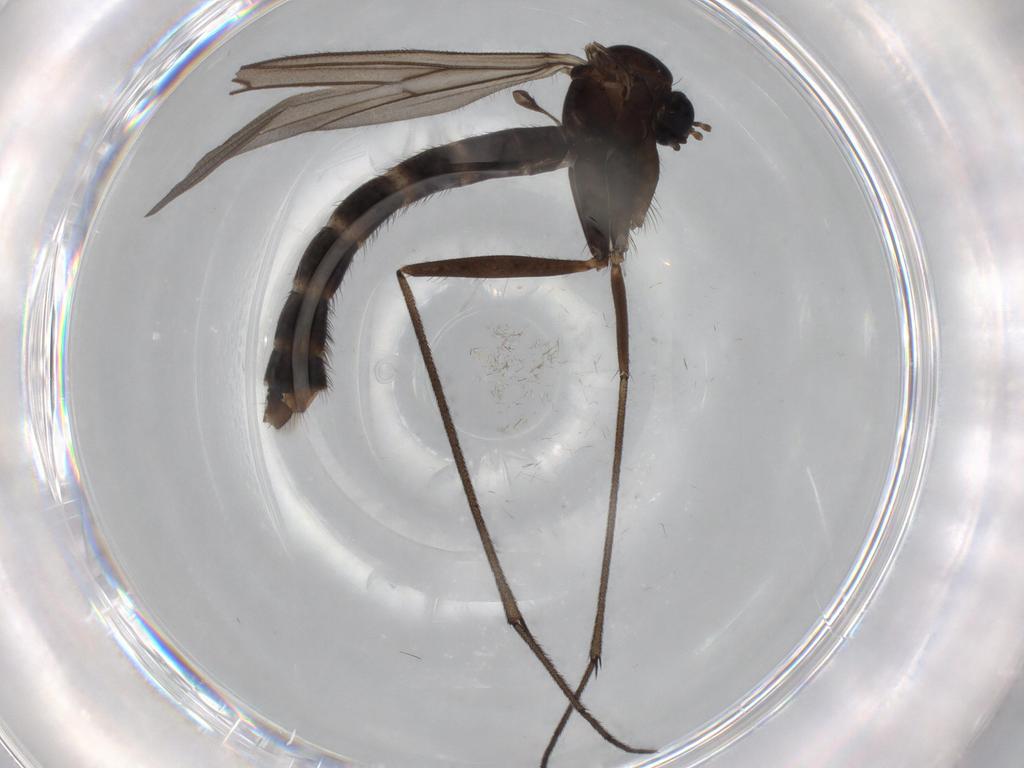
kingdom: Animalia
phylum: Arthropoda
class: Insecta
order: Diptera
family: Ditomyiidae
